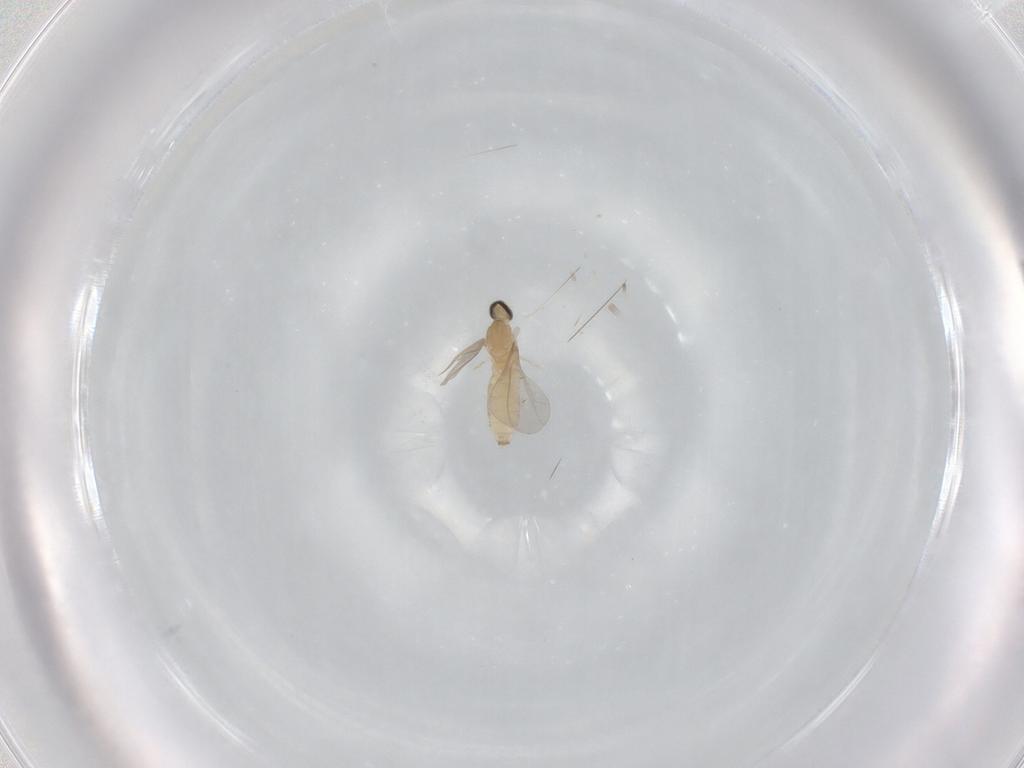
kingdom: Animalia
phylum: Arthropoda
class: Insecta
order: Diptera
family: Cecidomyiidae
